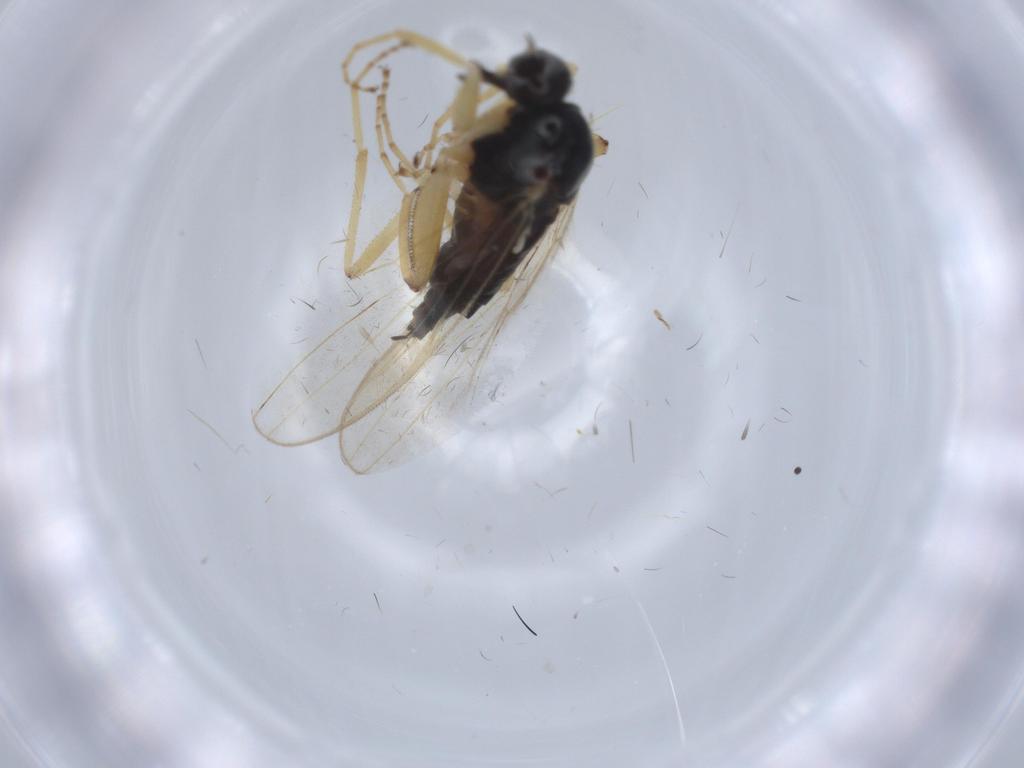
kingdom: Animalia
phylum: Arthropoda
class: Insecta
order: Diptera
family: Hybotidae
